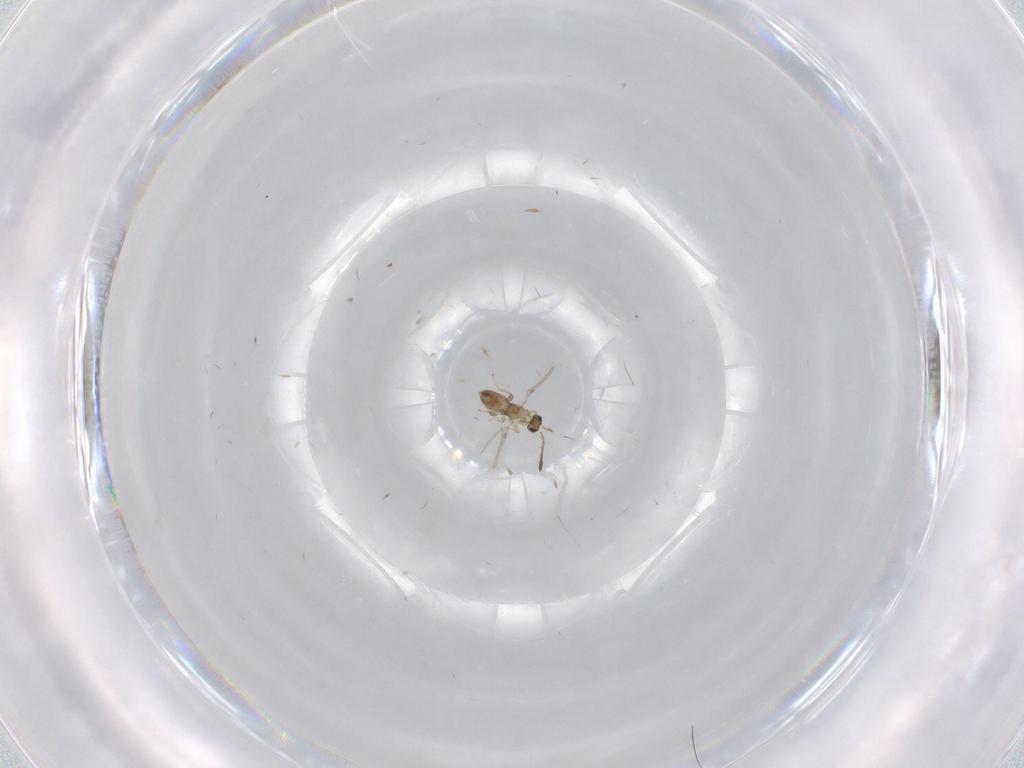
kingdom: Animalia
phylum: Arthropoda
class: Insecta
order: Hymenoptera
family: Mymaridae
